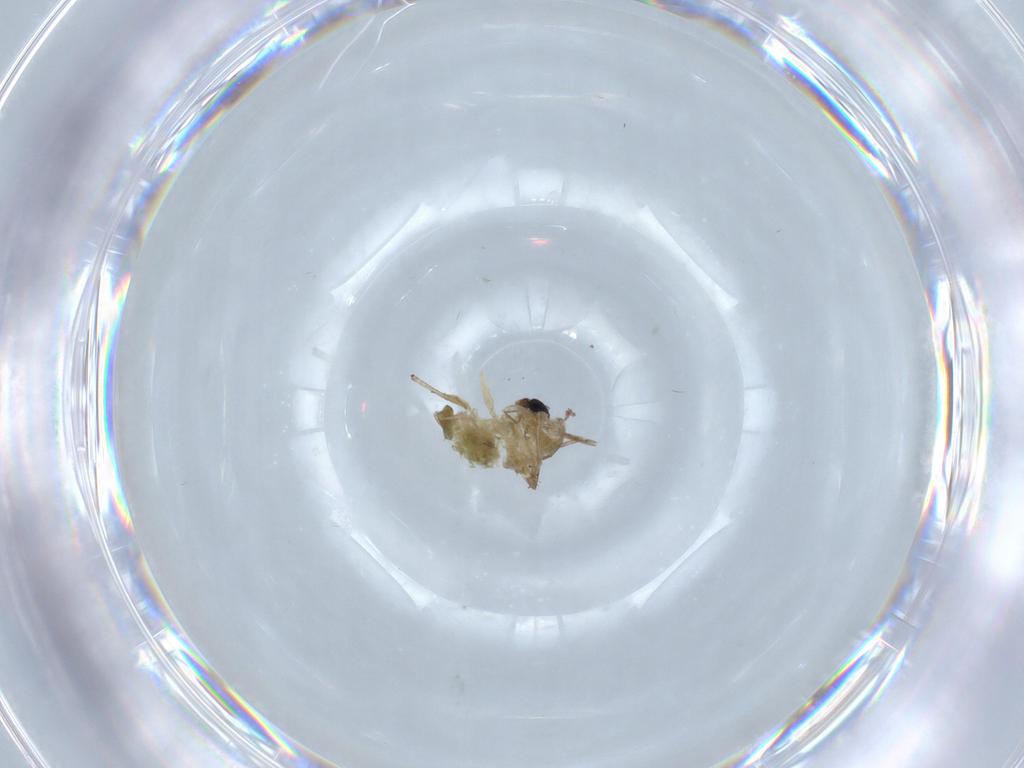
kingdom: Animalia
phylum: Arthropoda
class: Insecta
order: Diptera
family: Chironomidae
